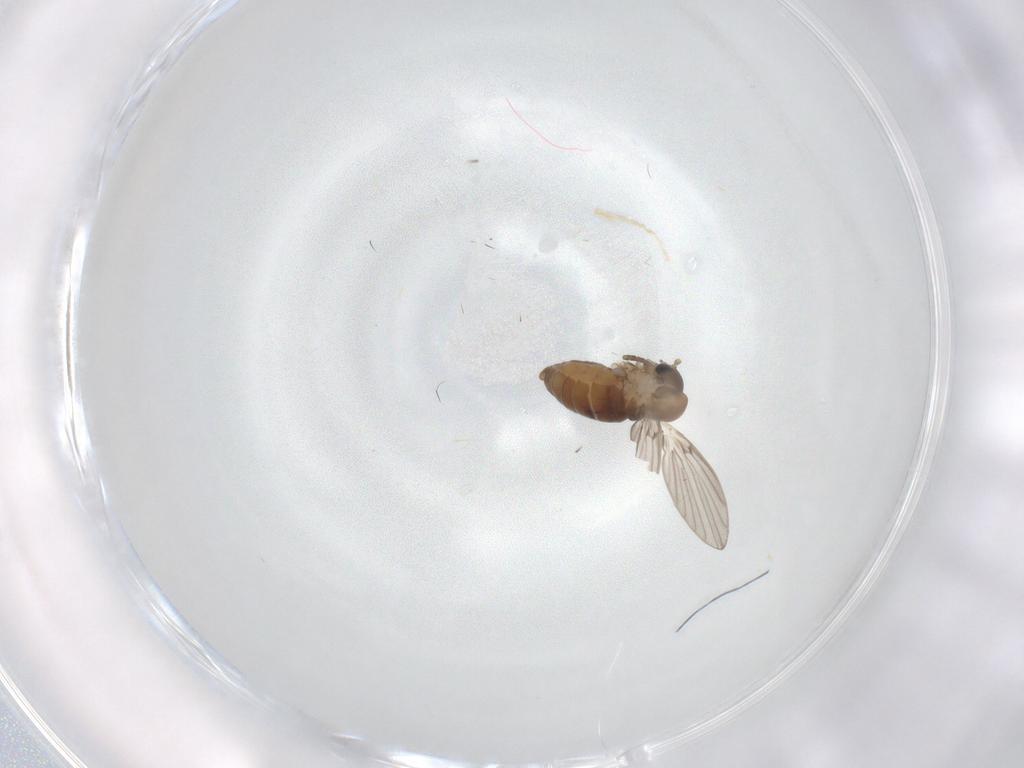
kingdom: Animalia
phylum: Arthropoda
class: Insecta
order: Diptera
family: Psychodidae
